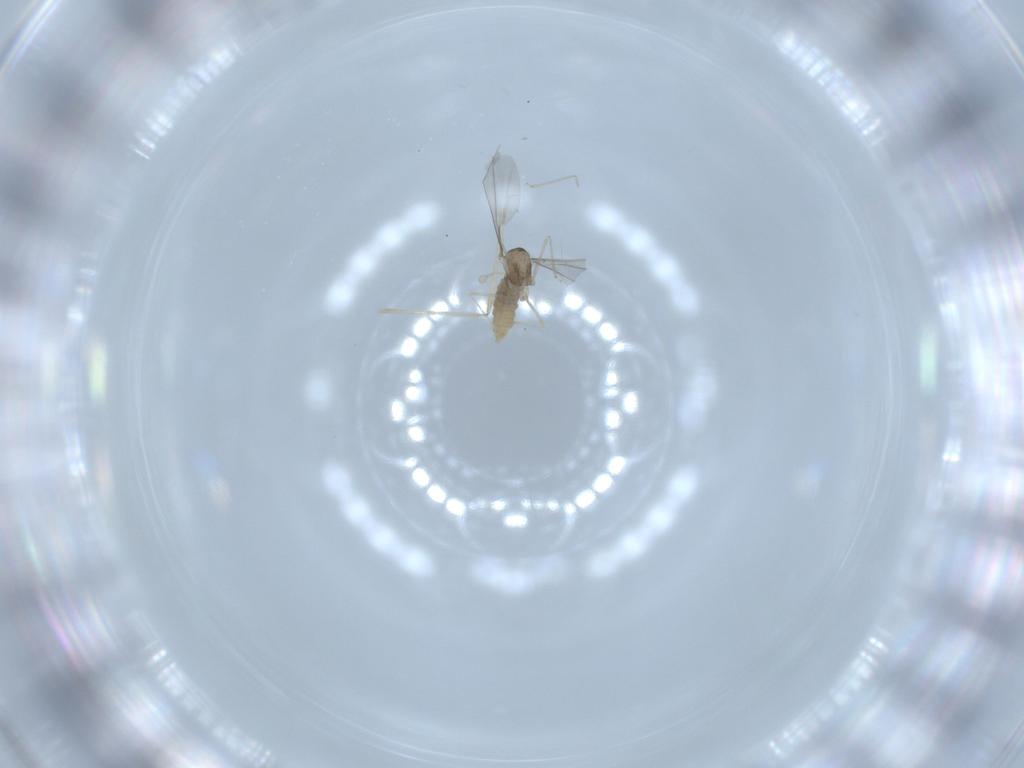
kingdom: Animalia
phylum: Arthropoda
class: Insecta
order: Diptera
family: Cecidomyiidae
